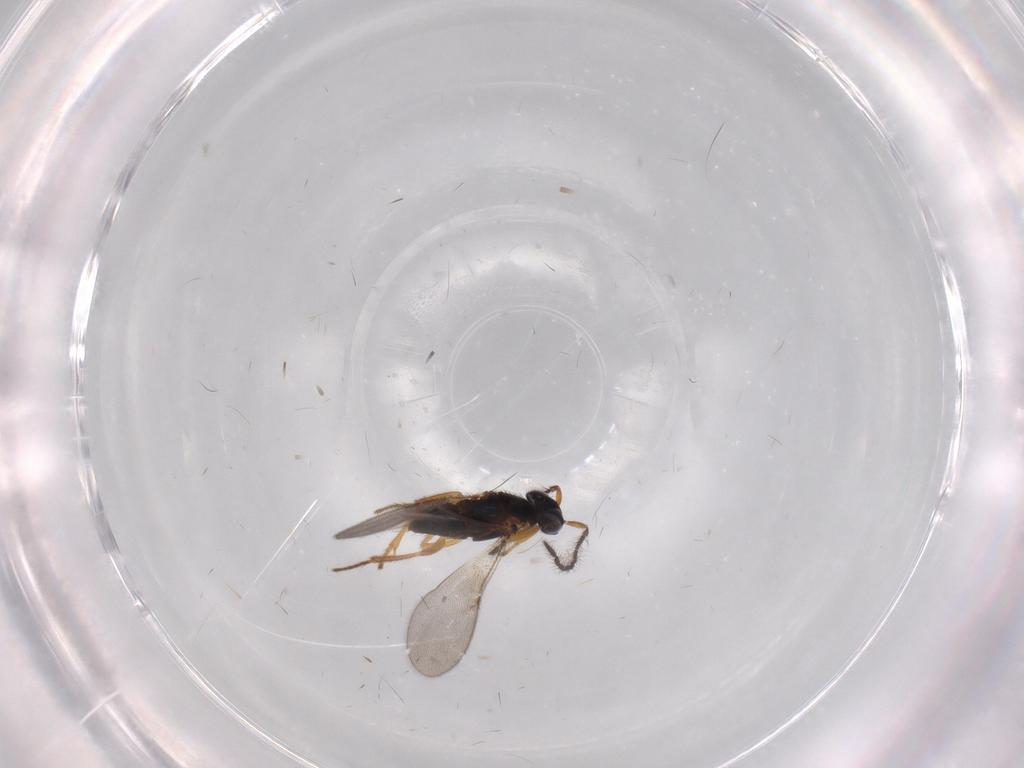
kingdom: Animalia
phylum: Arthropoda
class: Insecta
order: Hymenoptera
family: Encyrtidae
